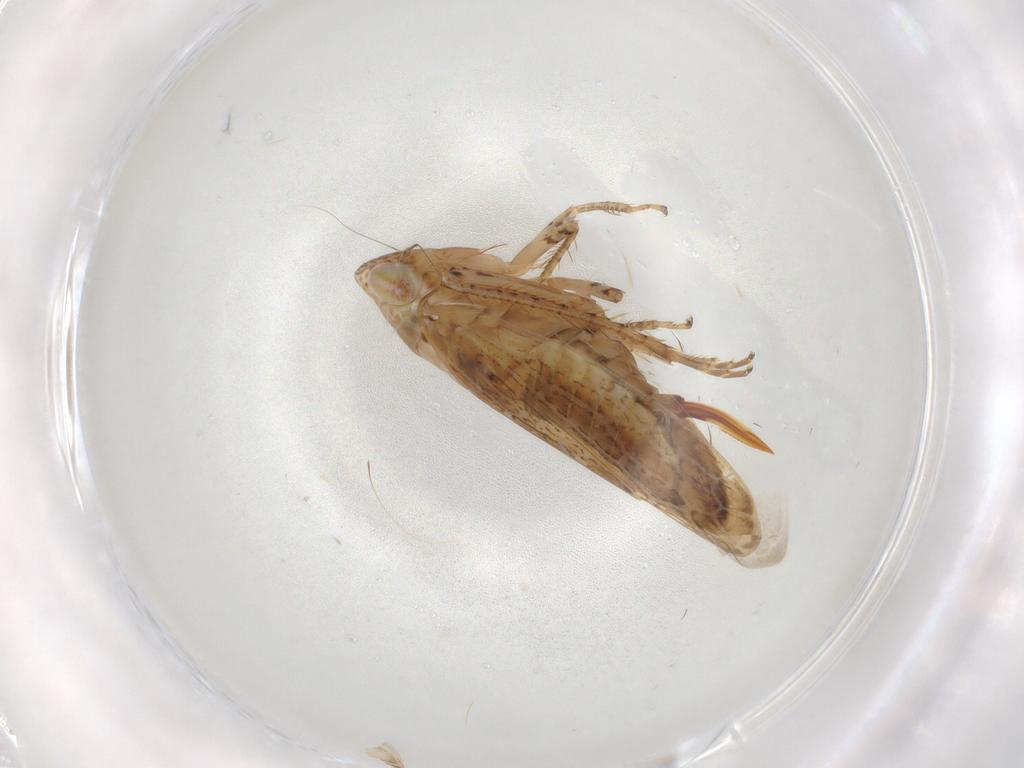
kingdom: Animalia
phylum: Arthropoda
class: Insecta
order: Hemiptera
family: Cicadellidae
